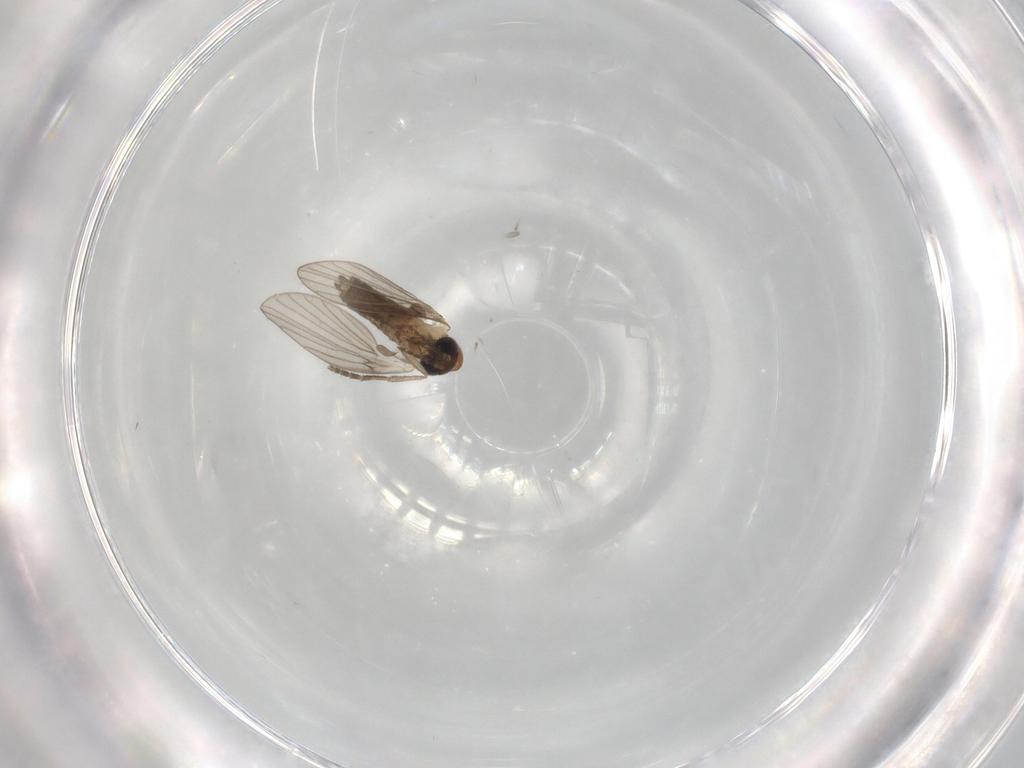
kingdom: Animalia
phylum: Arthropoda
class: Insecta
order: Diptera
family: Psychodidae
